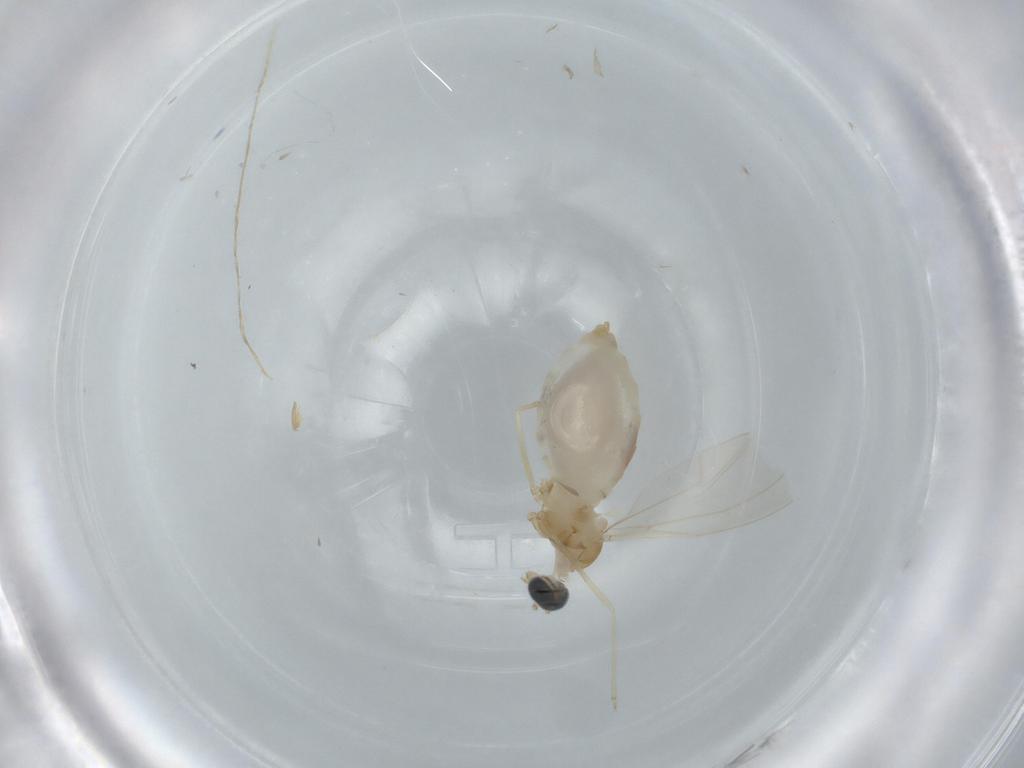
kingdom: Animalia
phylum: Arthropoda
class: Insecta
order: Diptera
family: Cecidomyiidae
